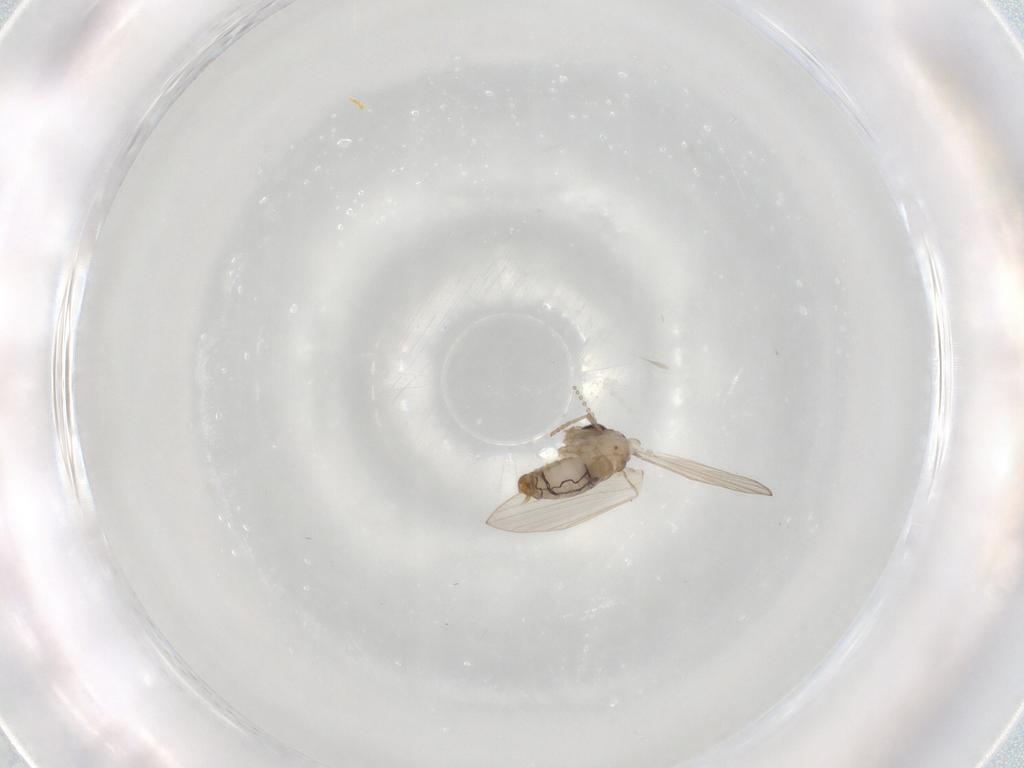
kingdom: Animalia
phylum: Arthropoda
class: Insecta
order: Diptera
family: Psychodidae
